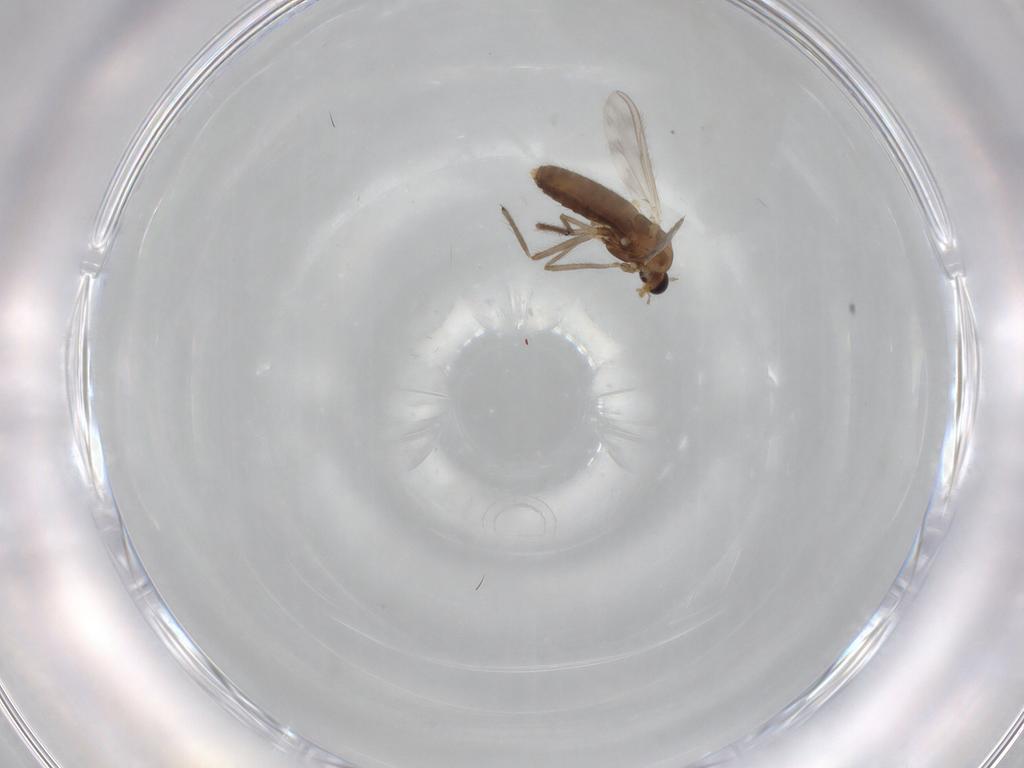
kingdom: Animalia
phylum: Arthropoda
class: Insecta
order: Diptera
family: Chironomidae
